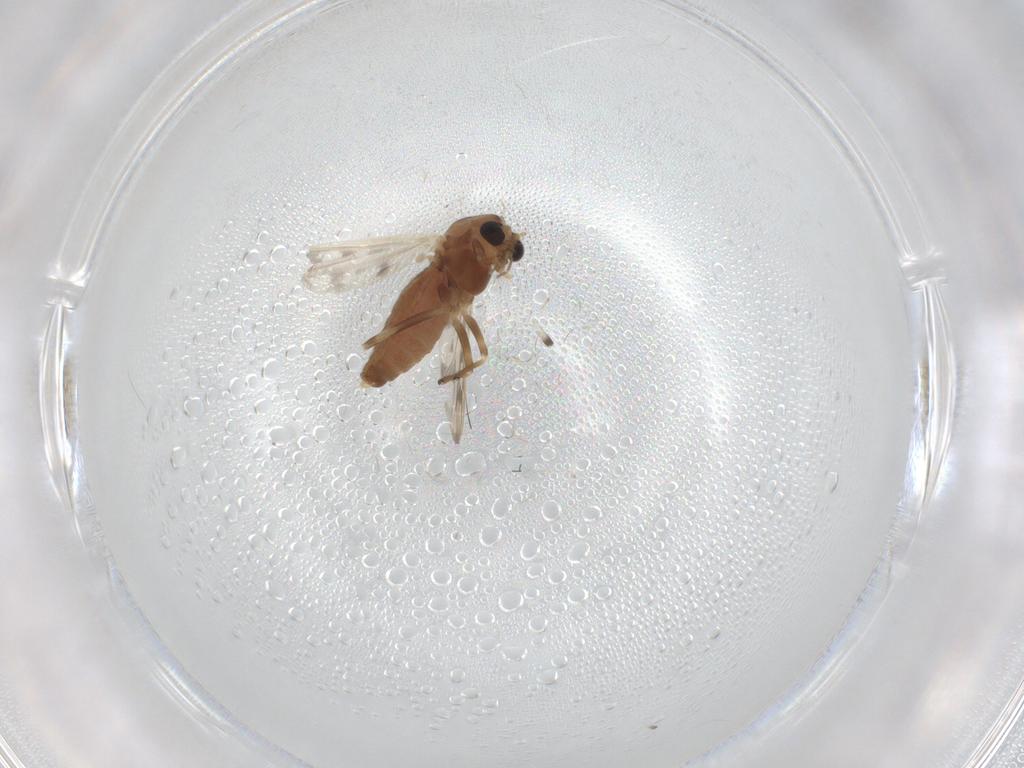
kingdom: Animalia
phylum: Arthropoda
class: Insecta
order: Diptera
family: Chironomidae
